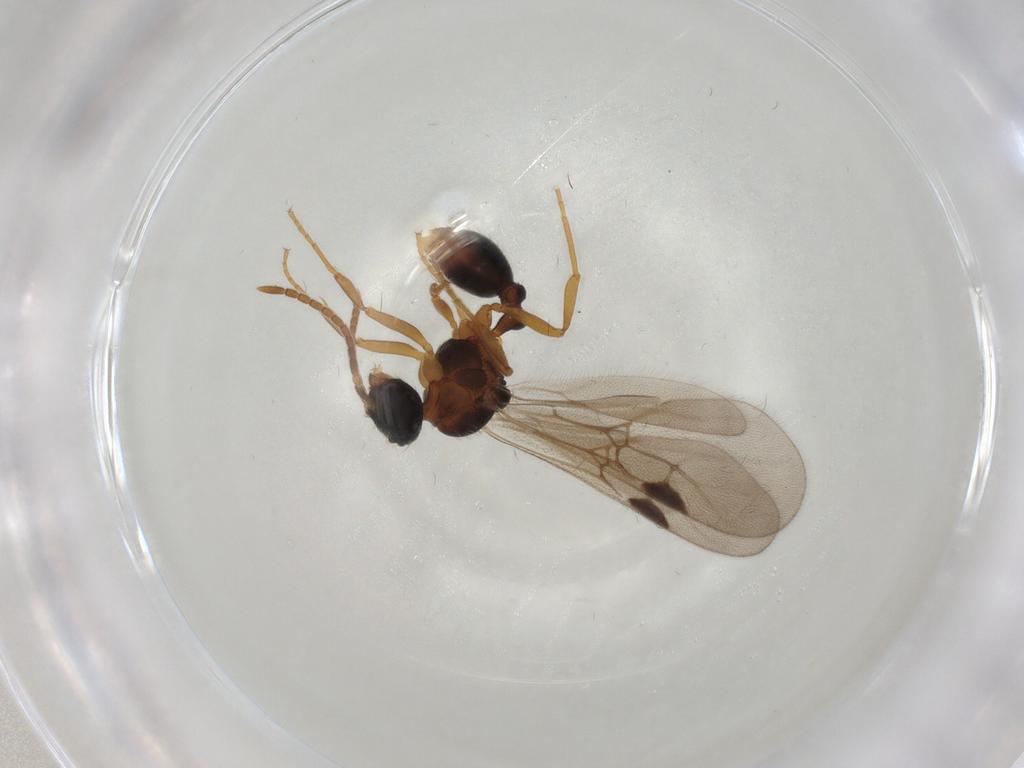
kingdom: Animalia
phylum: Arthropoda
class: Insecta
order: Hymenoptera
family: Formicidae
